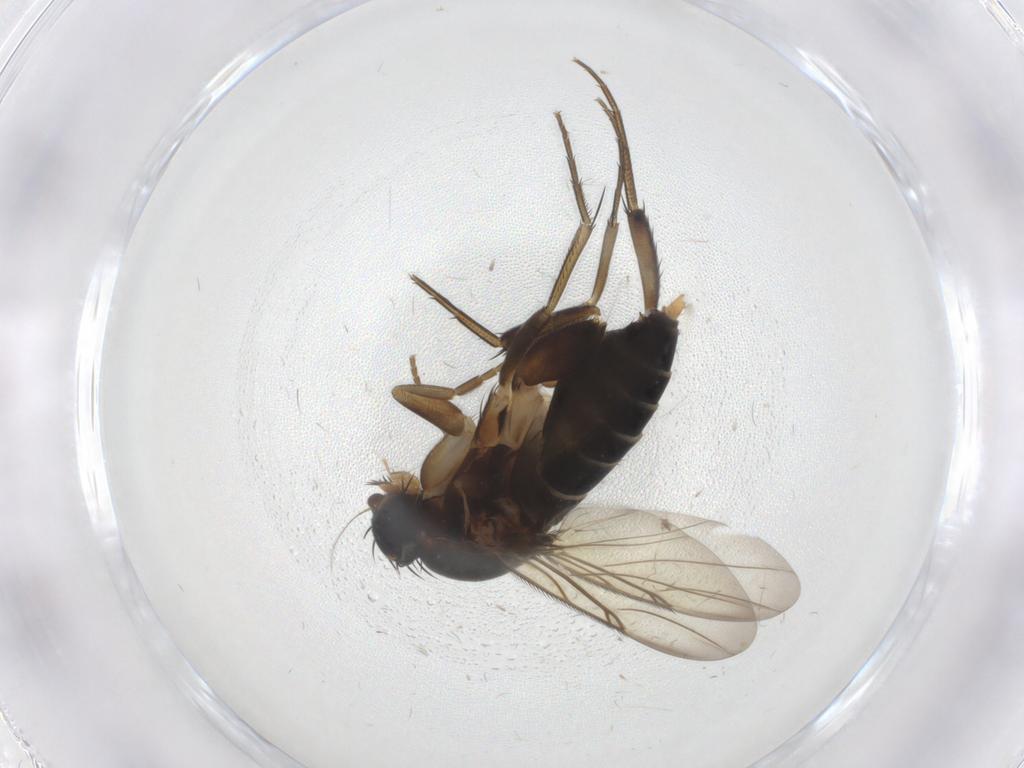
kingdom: Animalia
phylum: Arthropoda
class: Insecta
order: Diptera
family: Phoridae
